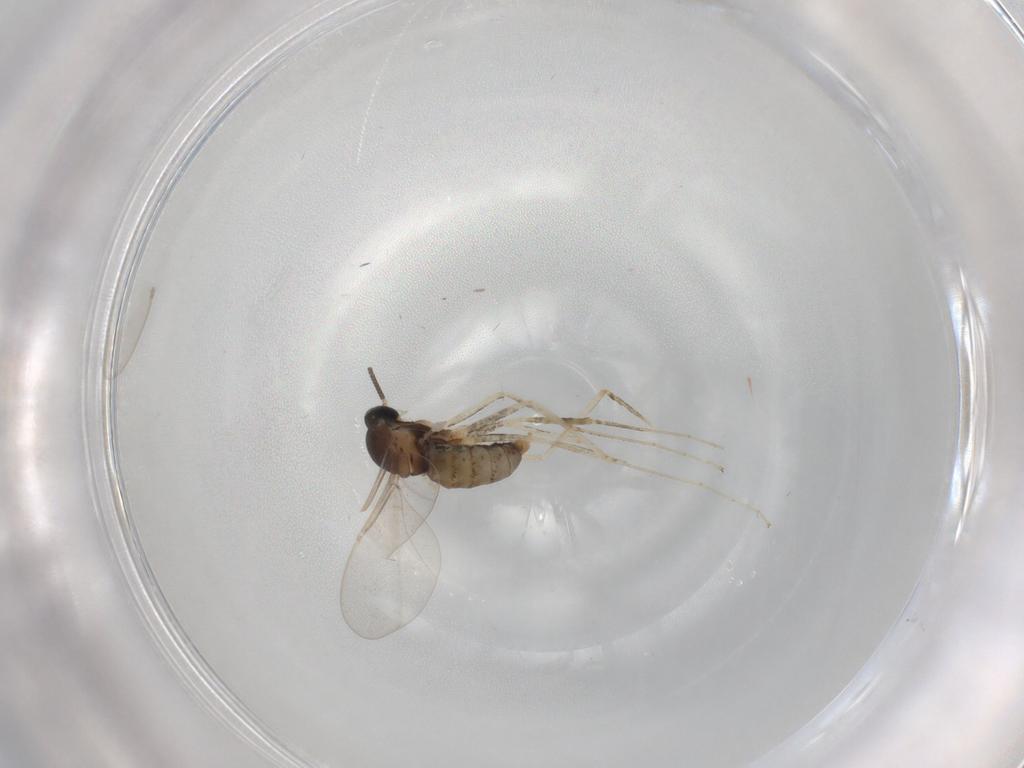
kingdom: Animalia
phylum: Arthropoda
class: Insecta
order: Diptera
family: Cecidomyiidae
